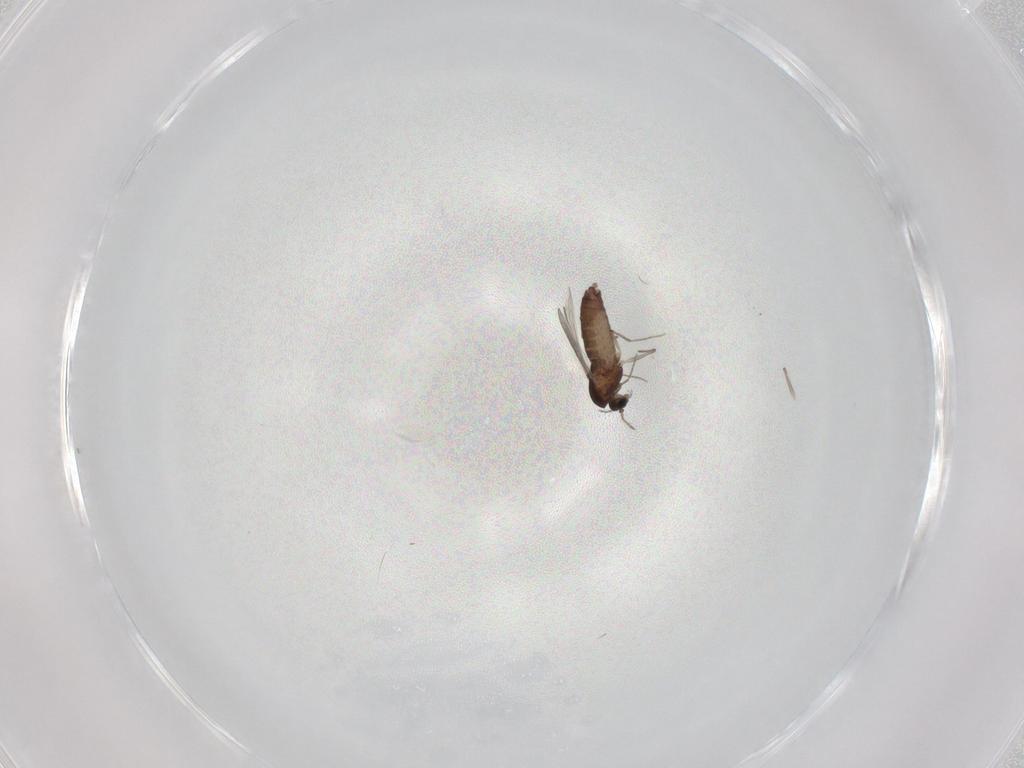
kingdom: Animalia
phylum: Arthropoda
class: Insecta
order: Diptera
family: Chironomidae
